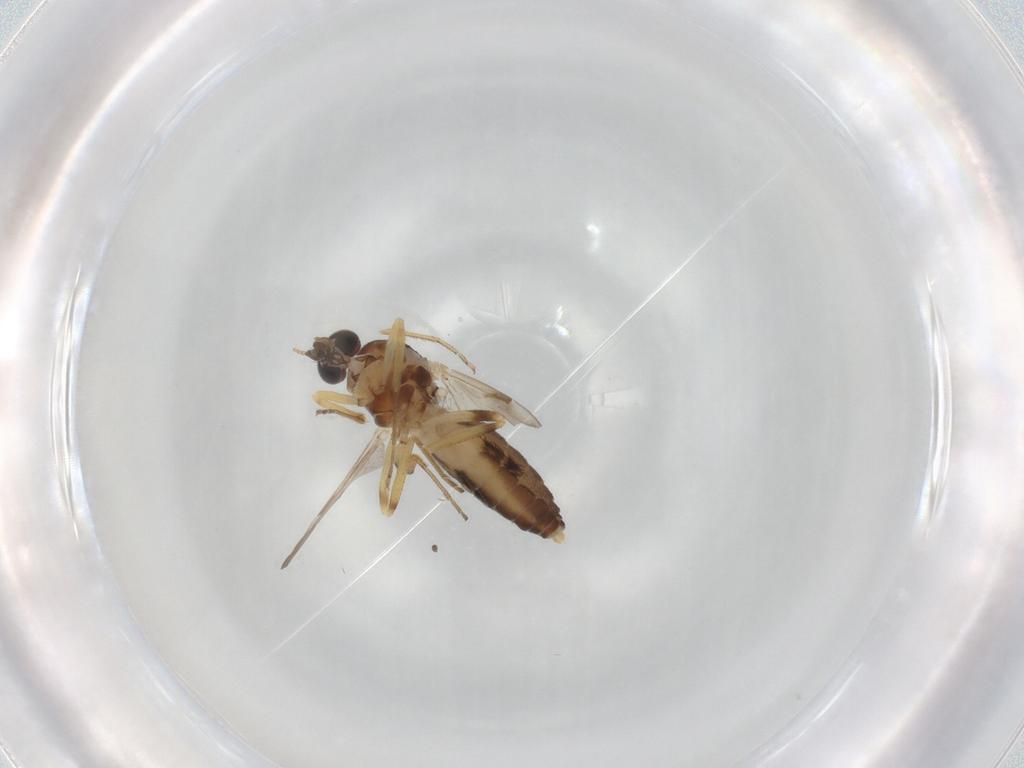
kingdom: Animalia
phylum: Arthropoda
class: Insecta
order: Diptera
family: Ceratopogonidae
